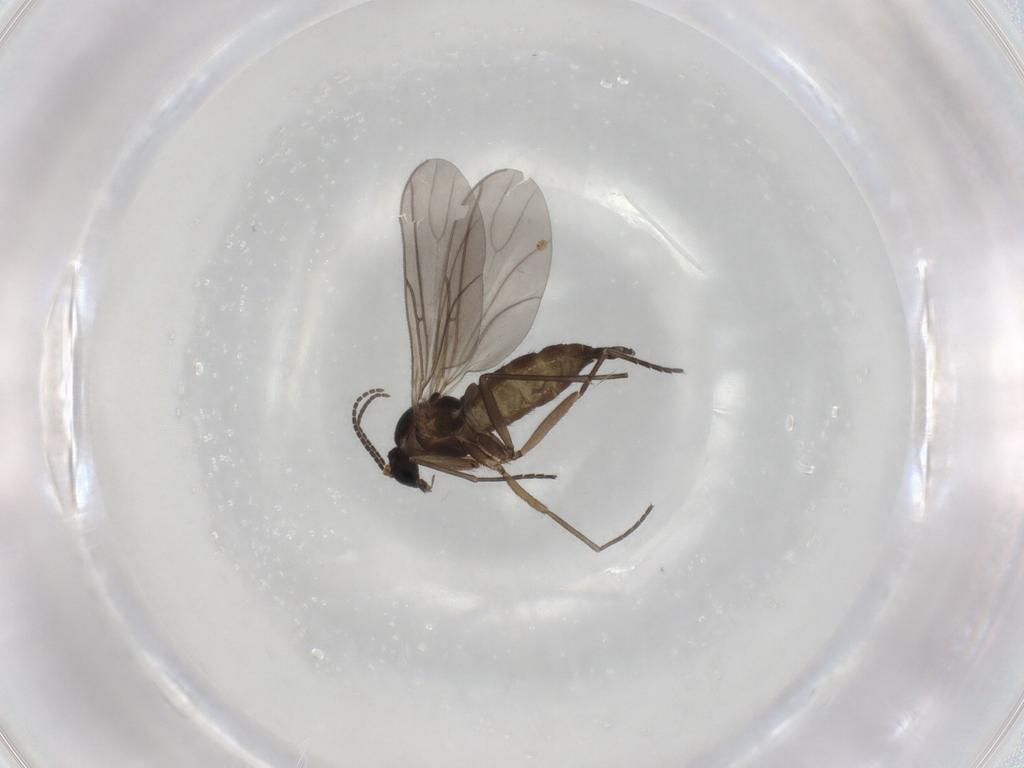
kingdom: Animalia
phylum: Arthropoda
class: Insecta
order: Diptera
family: Sciaridae
